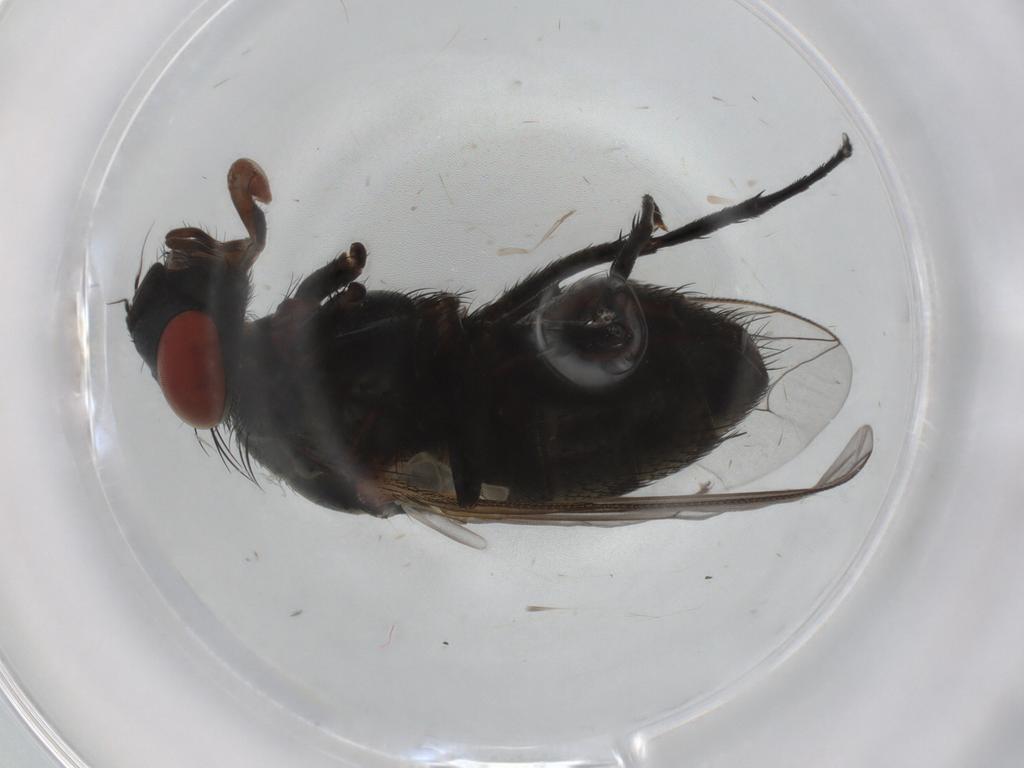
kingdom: Animalia
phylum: Arthropoda
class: Insecta
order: Diptera
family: Sarcophagidae
